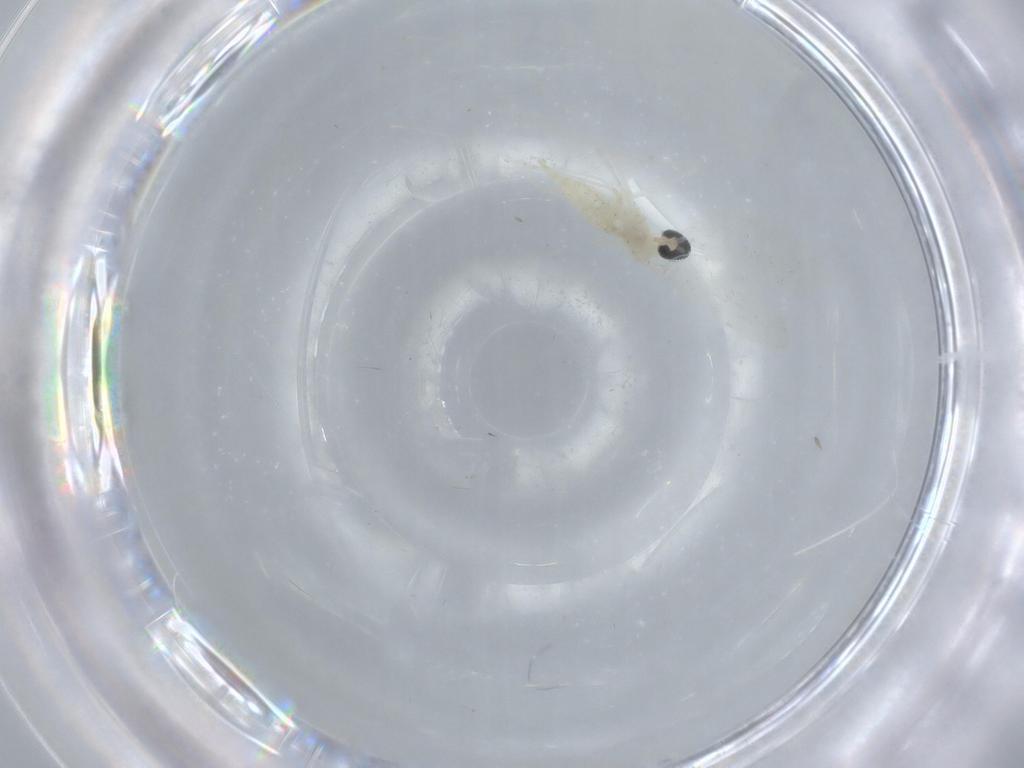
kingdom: Animalia
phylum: Arthropoda
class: Insecta
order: Diptera
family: Cecidomyiidae
